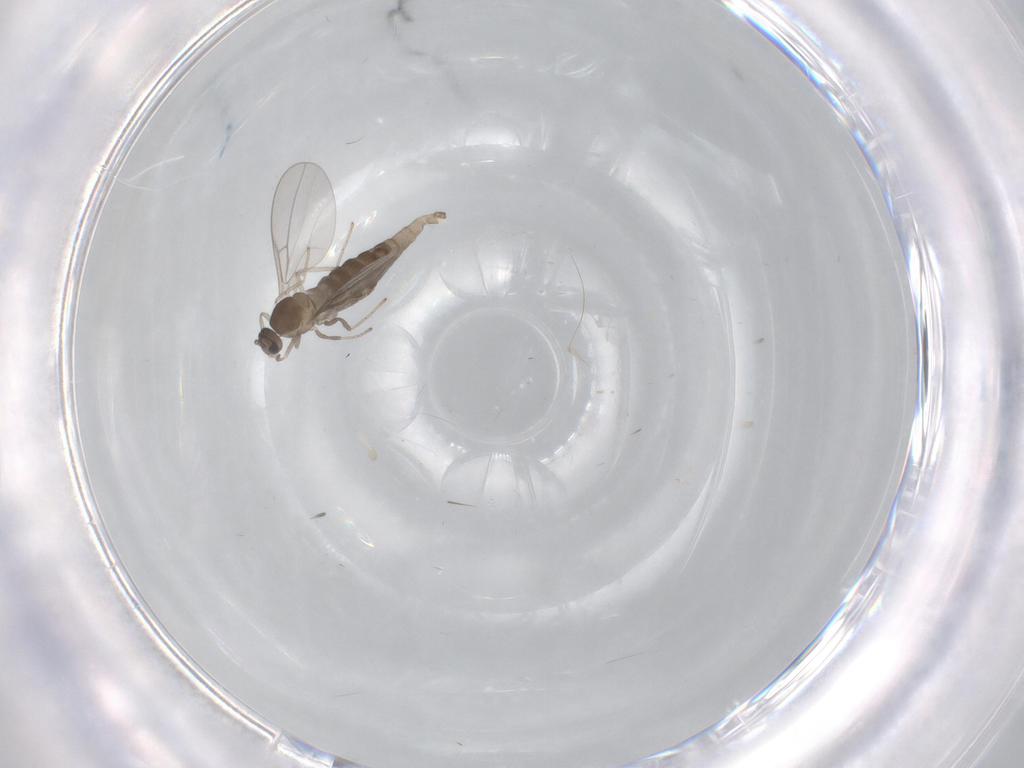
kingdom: Animalia
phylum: Arthropoda
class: Insecta
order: Diptera
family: Cecidomyiidae
